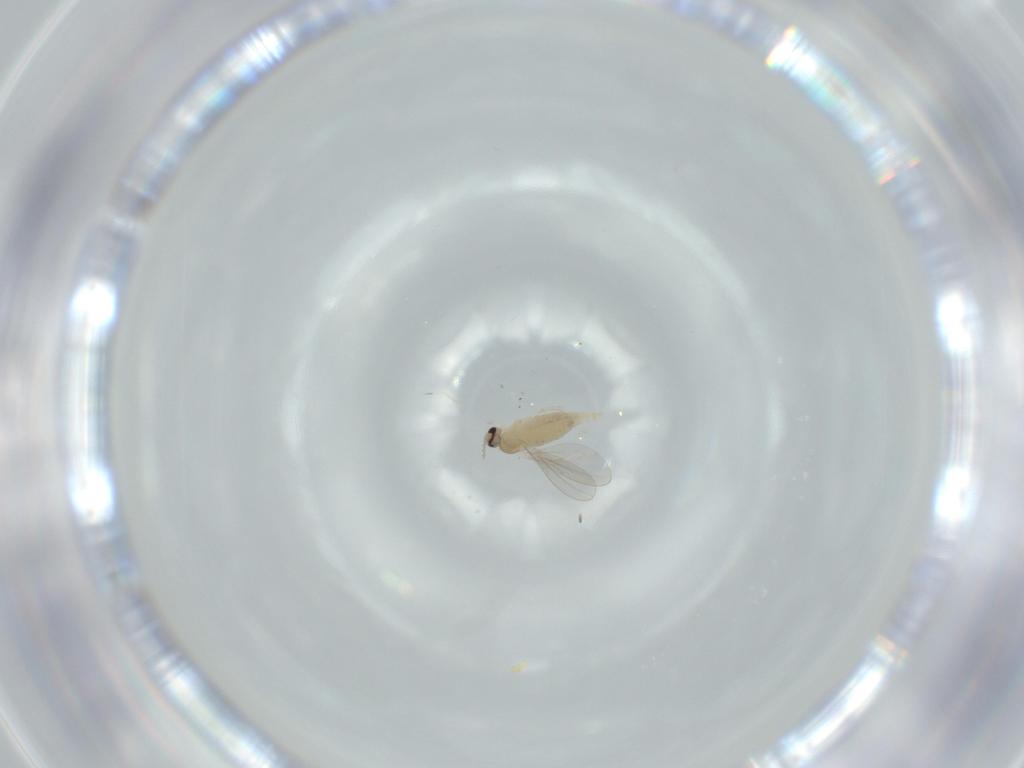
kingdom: Animalia
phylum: Arthropoda
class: Insecta
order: Diptera
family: Cecidomyiidae
